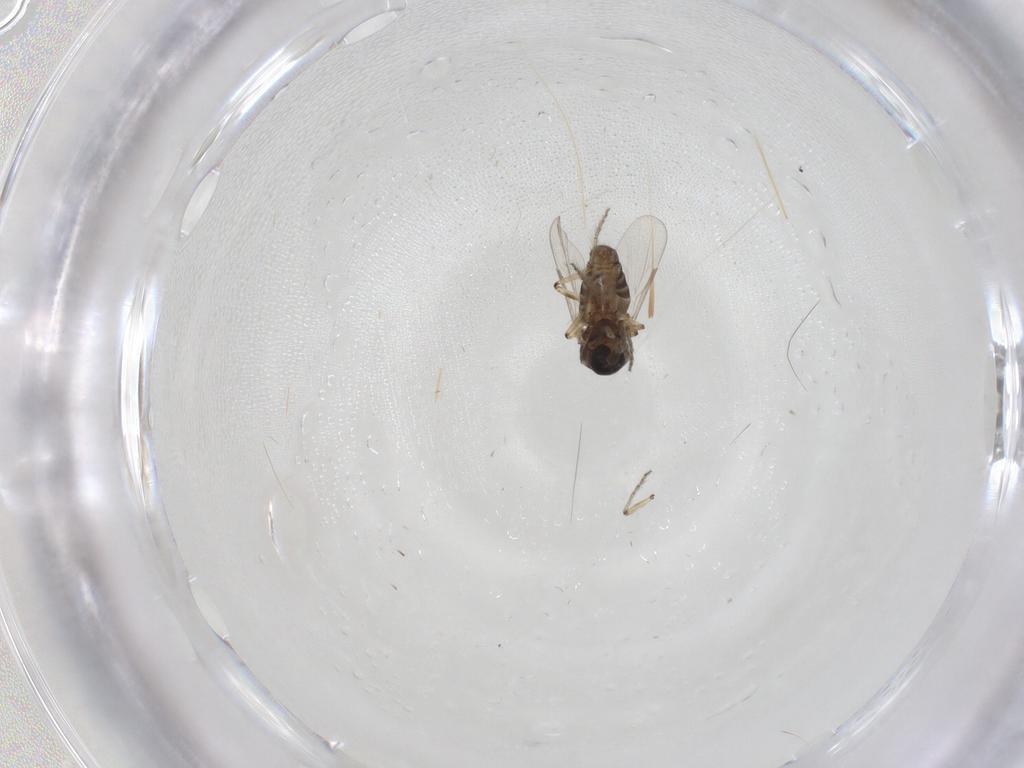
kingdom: Animalia
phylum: Arthropoda
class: Insecta
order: Diptera
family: Ceratopogonidae
